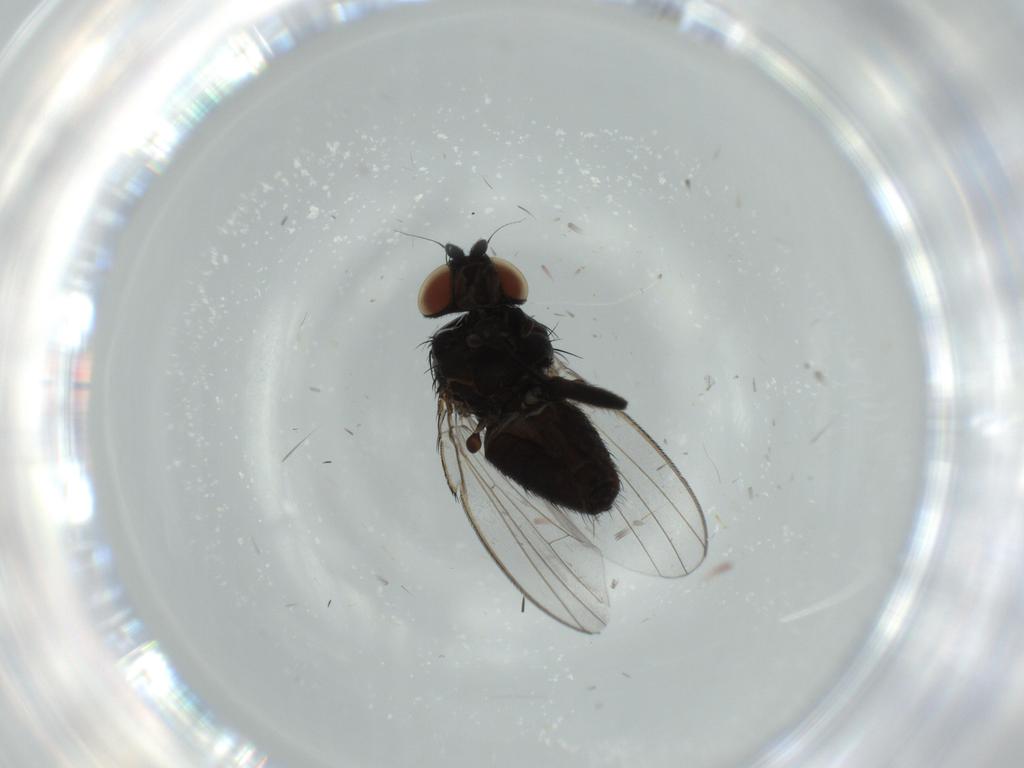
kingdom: Animalia
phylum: Arthropoda
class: Insecta
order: Diptera
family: Milichiidae
